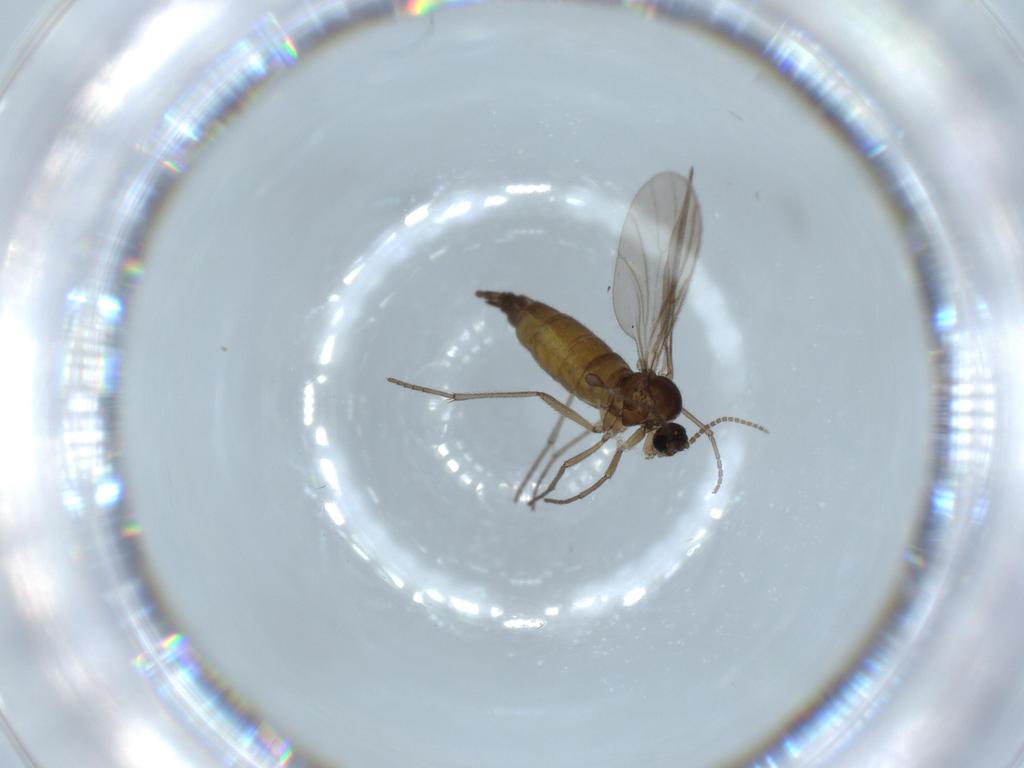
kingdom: Animalia
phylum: Arthropoda
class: Insecta
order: Diptera
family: Sciaridae
